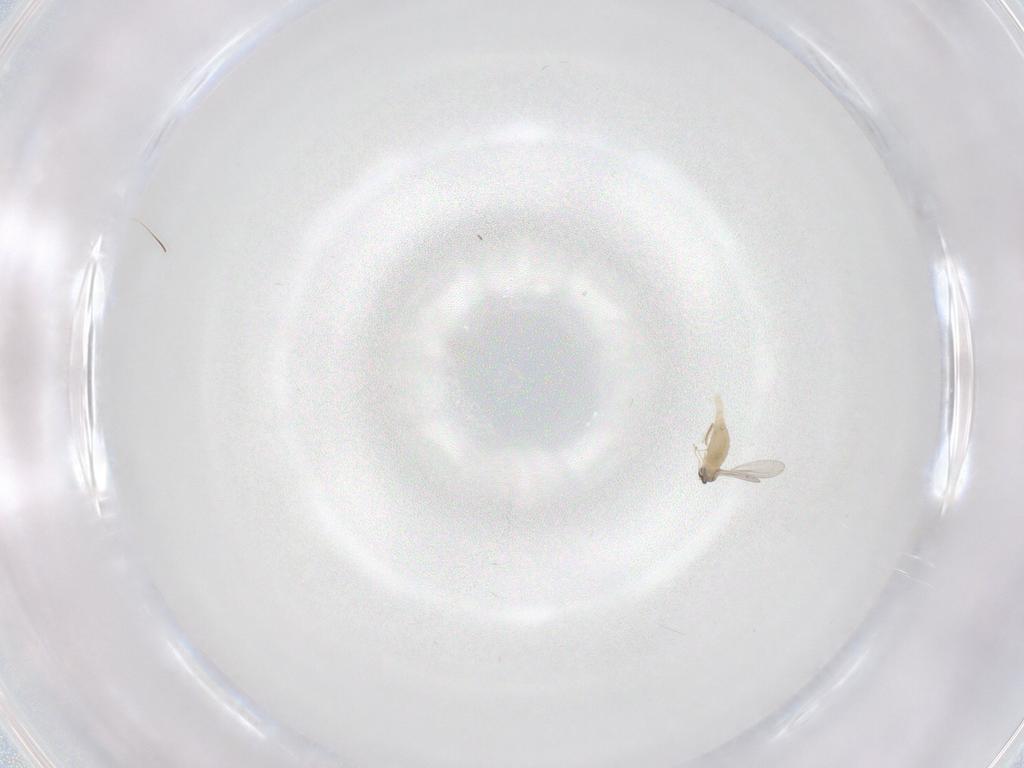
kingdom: Animalia
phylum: Arthropoda
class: Insecta
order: Diptera
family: Cecidomyiidae
